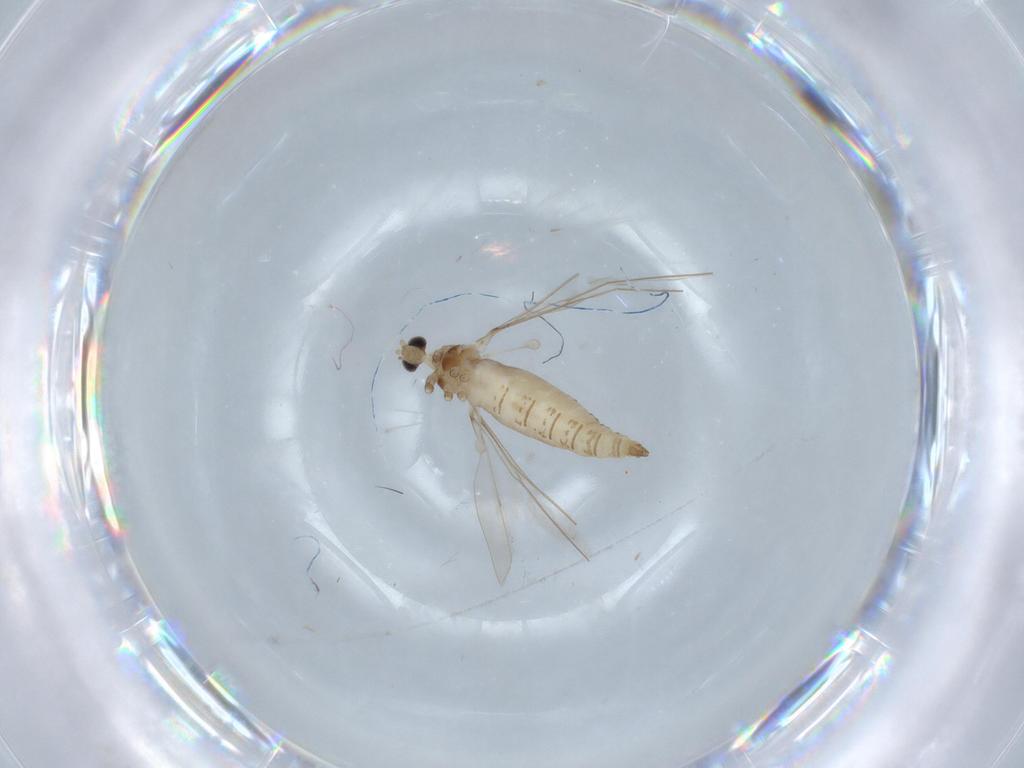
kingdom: Animalia
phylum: Arthropoda
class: Insecta
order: Diptera
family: Cecidomyiidae
